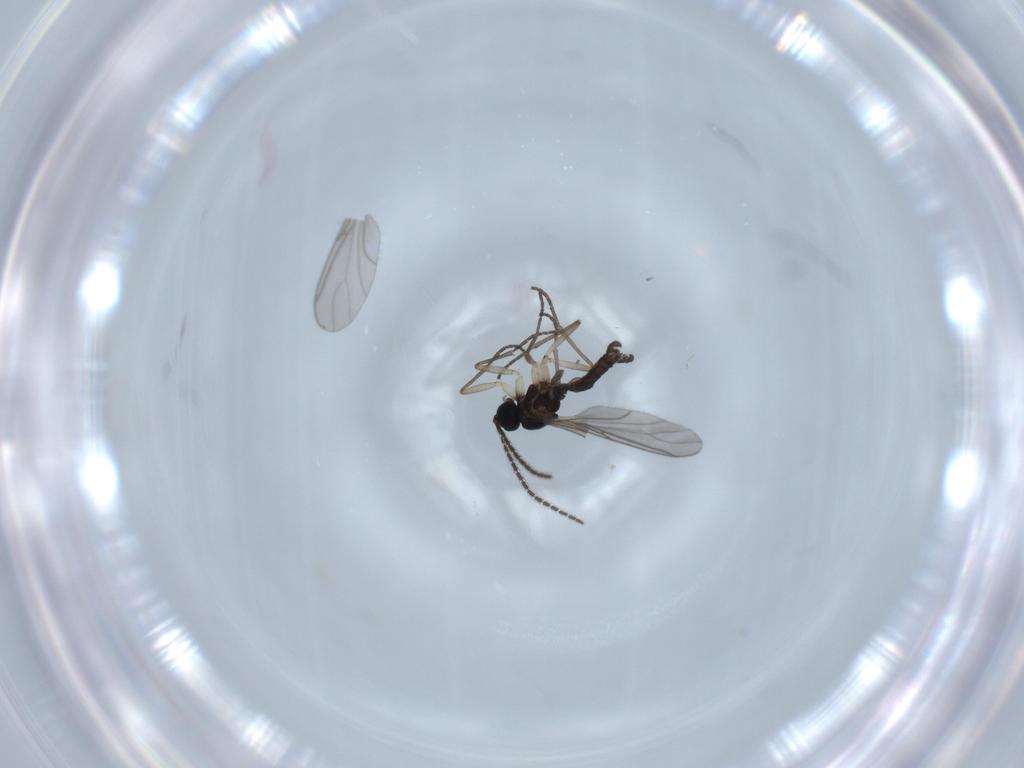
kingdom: Animalia
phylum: Arthropoda
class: Insecta
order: Diptera
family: Sciaridae
